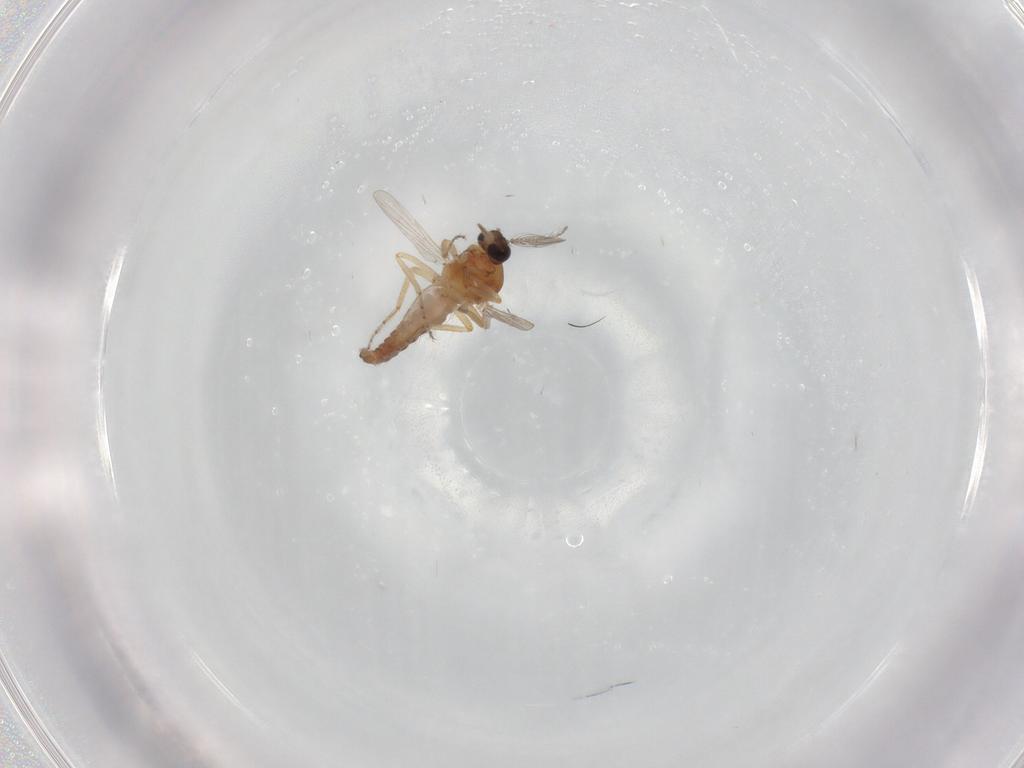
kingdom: Animalia
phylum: Arthropoda
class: Insecta
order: Diptera
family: Ceratopogonidae
